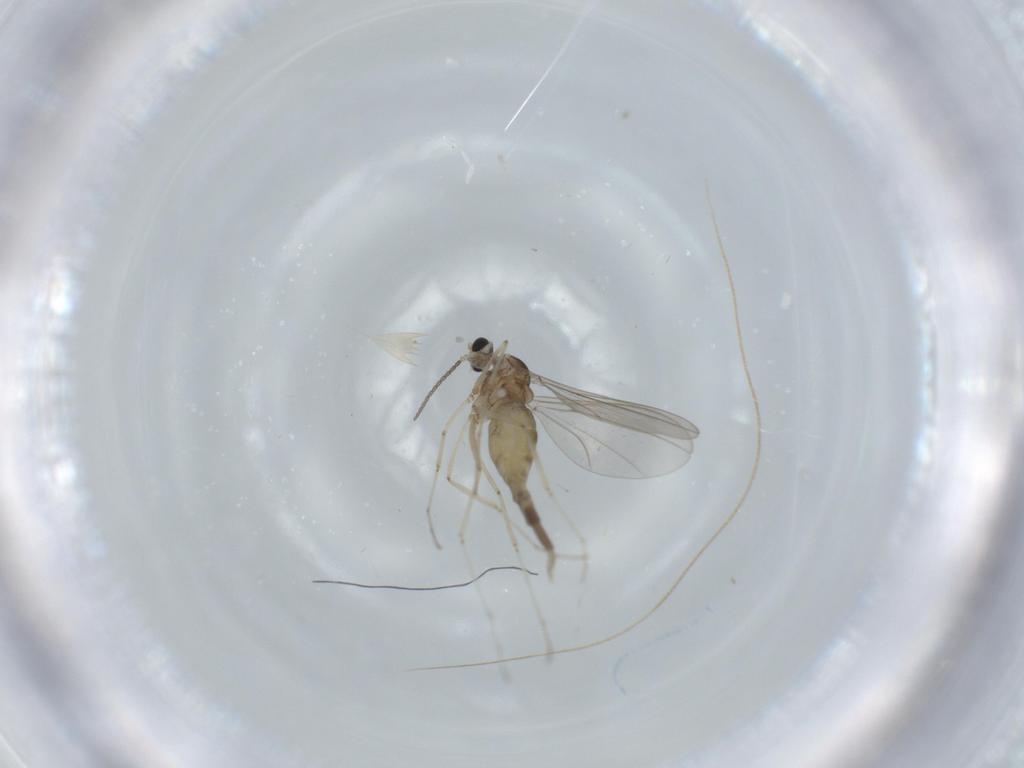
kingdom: Animalia
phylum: Arthropoda
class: Insecta
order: Diptera
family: Cecidomyiidae
